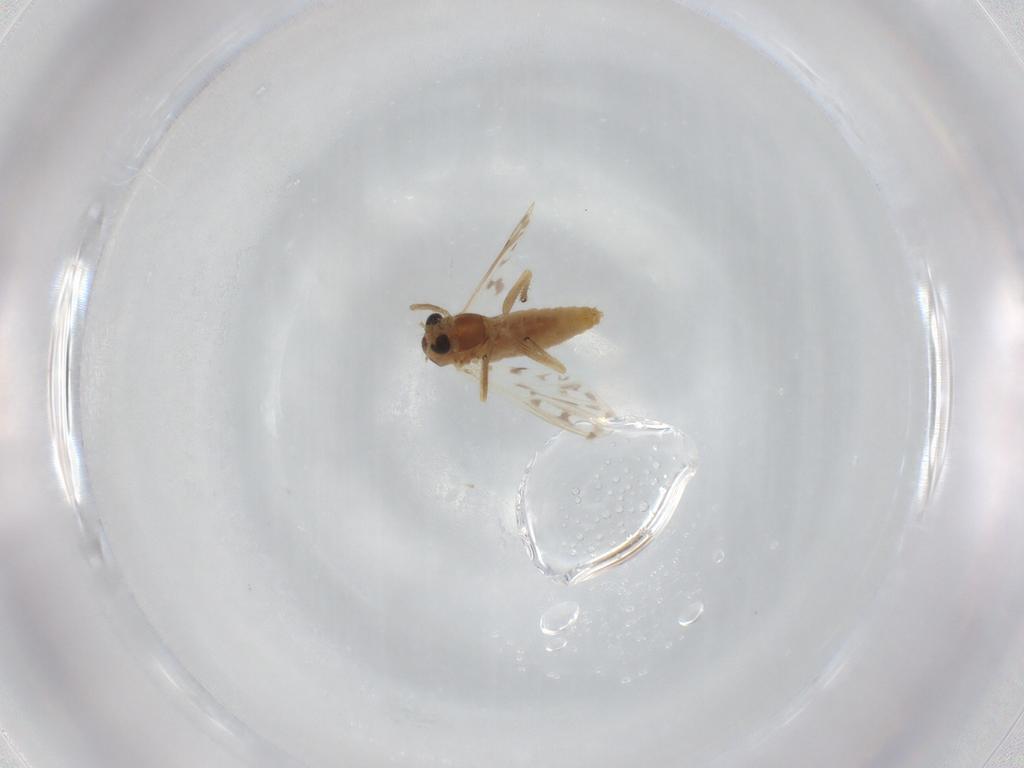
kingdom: Animalia
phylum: Arthropoda
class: Insecta
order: Diptera
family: Chironomidae
